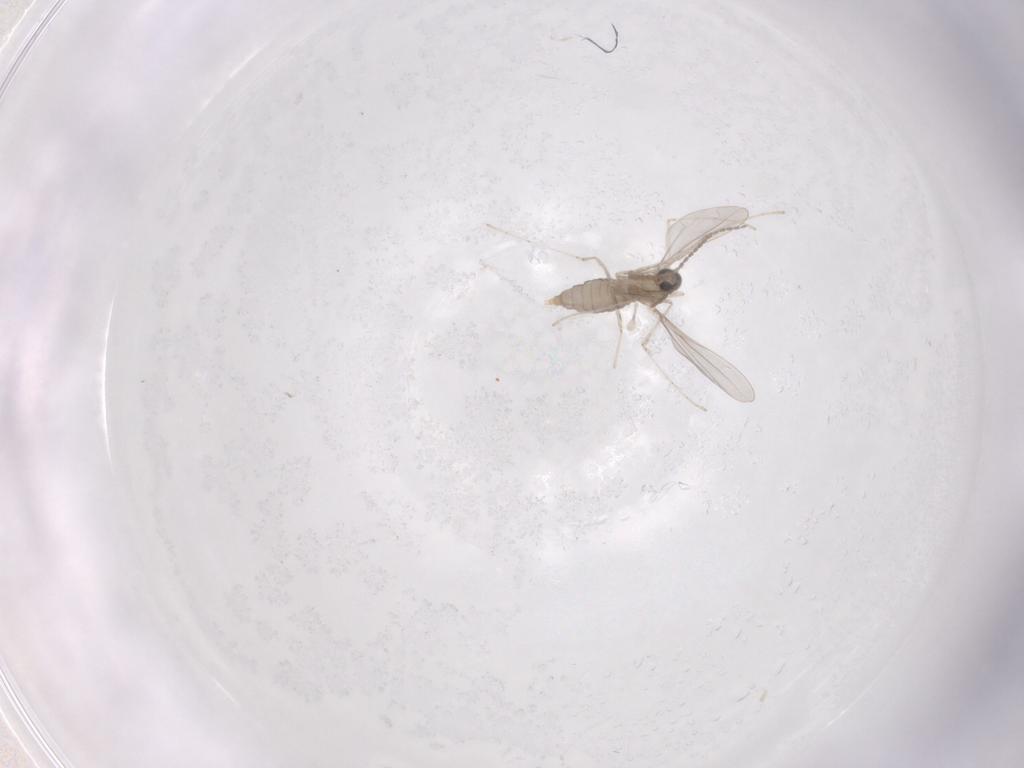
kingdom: Animalia
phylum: Arthropoda
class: Insecta
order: Diptera
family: Cecidomyiidae
